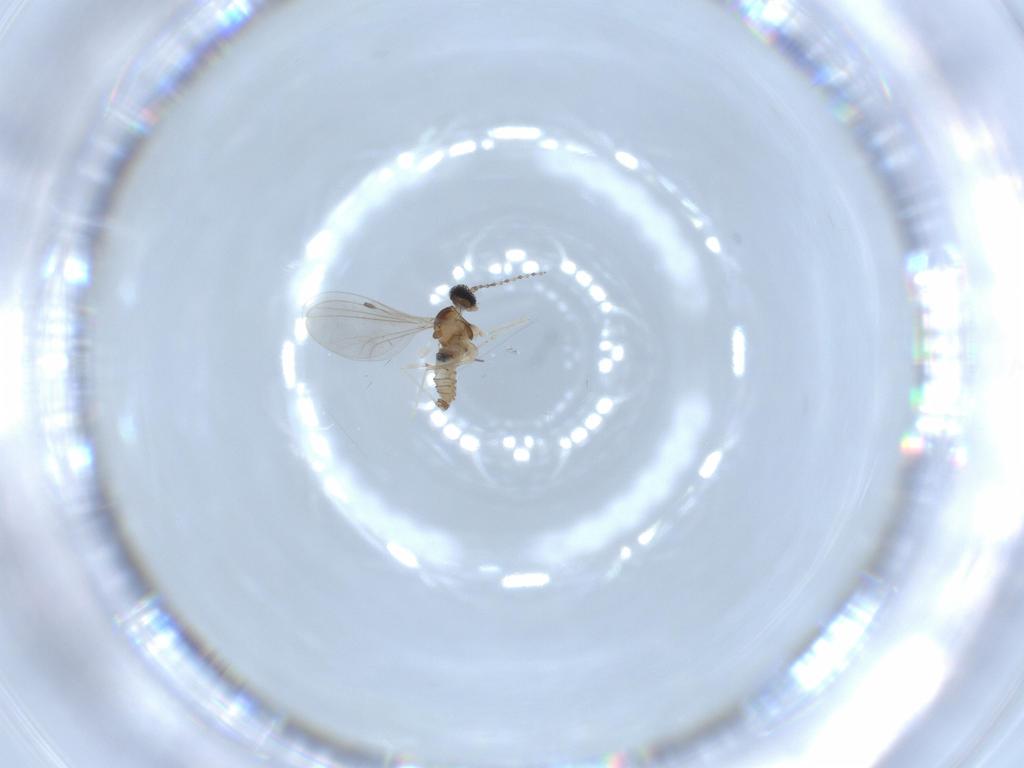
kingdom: Animalia
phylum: Arthropoda
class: Insecta
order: Diptera
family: Cecidomyiidae
